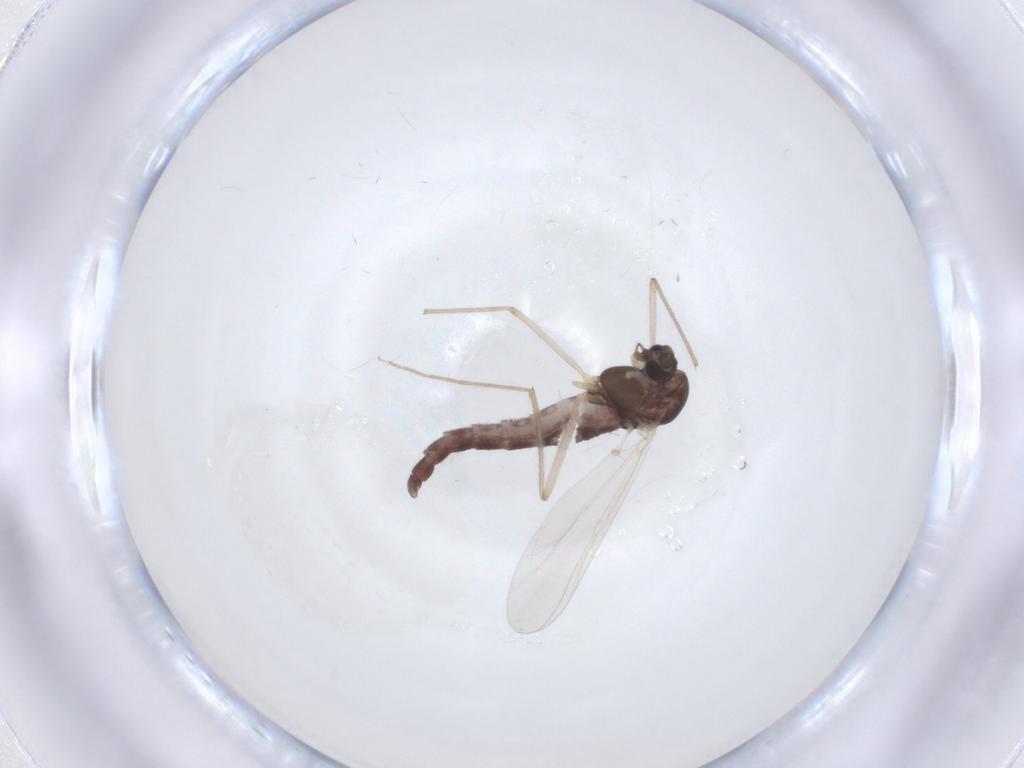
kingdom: Animalia
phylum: Arthropoda
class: Insecta
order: Diptera
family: Chironomidae
